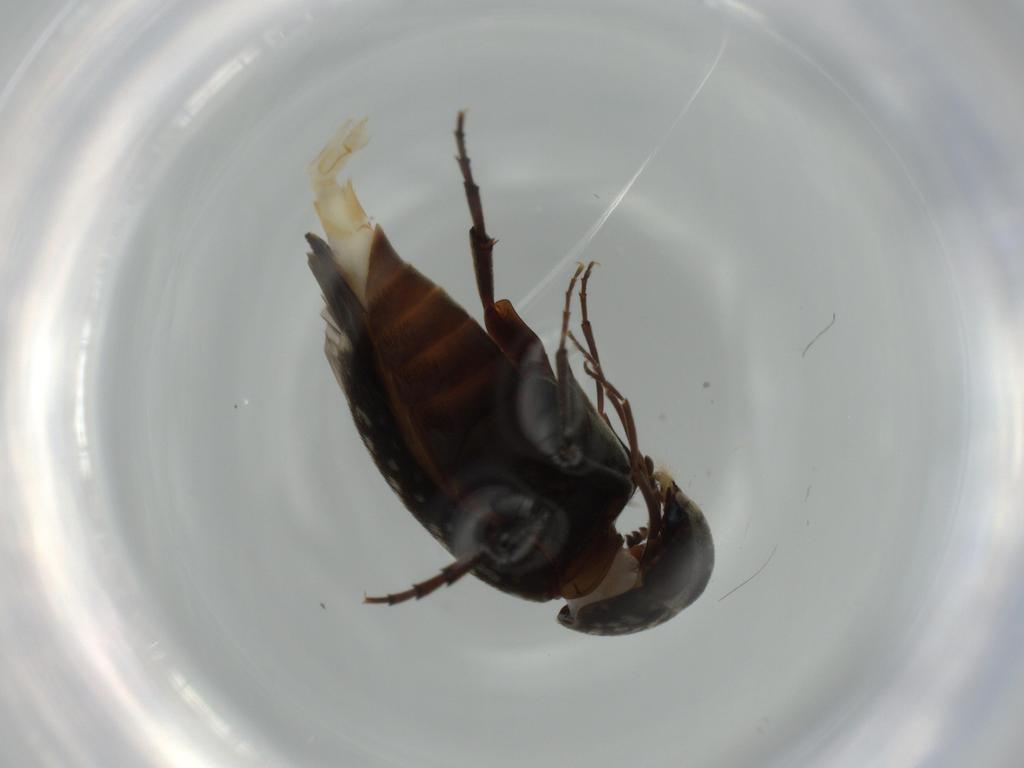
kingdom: Animalia
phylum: Arthropoda
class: Insecta
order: Coleoptera
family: Mordellidae
